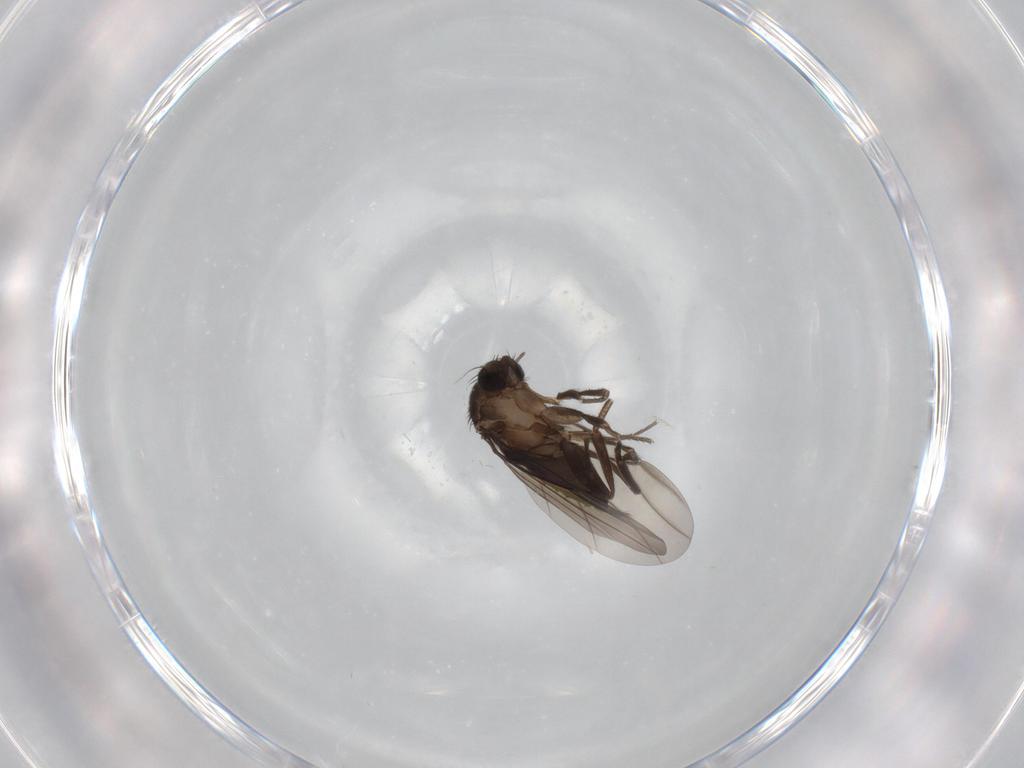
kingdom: Animalia
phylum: Arthropoda
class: Insecta
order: Diptera
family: Phoridae
